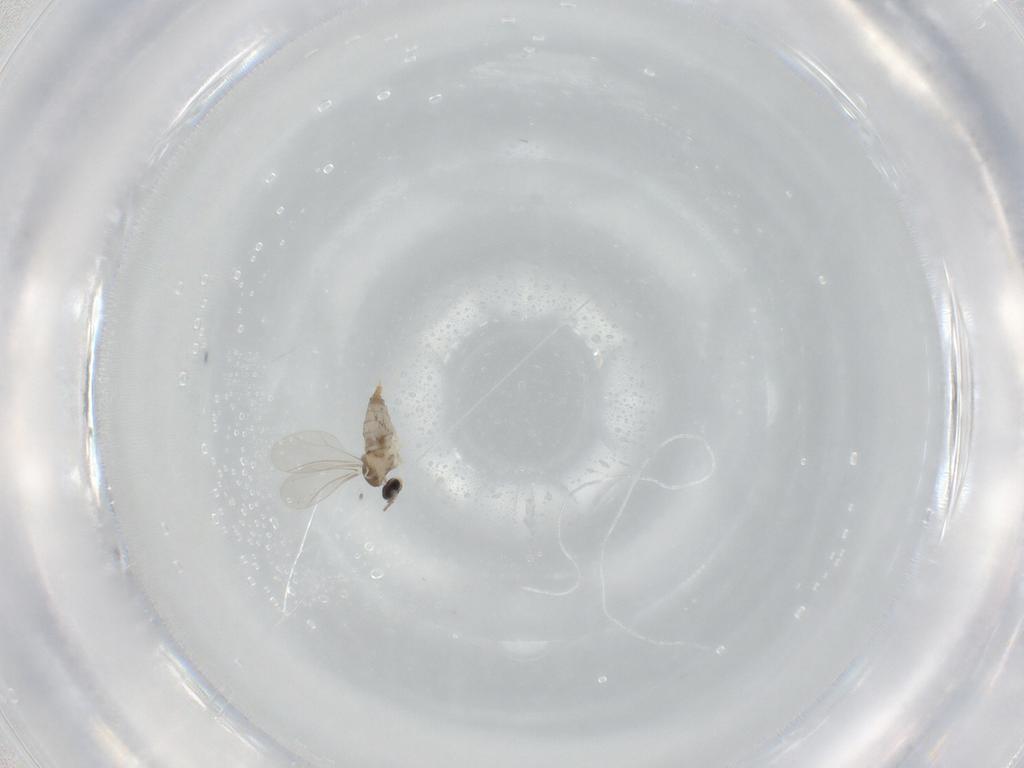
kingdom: Animalia
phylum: Arthropoda
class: Insecta
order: Diptera
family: Cecidomyiidae
